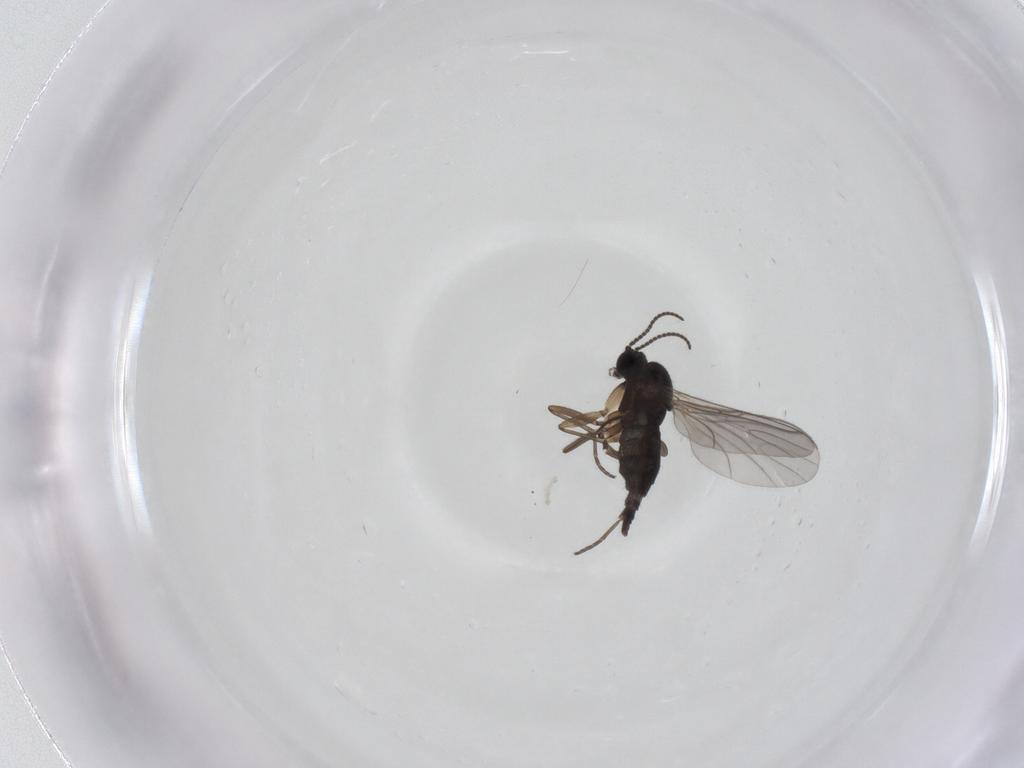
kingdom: Animalia
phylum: Arthropoda
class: Insecta
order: Diptera
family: Sciaridae
